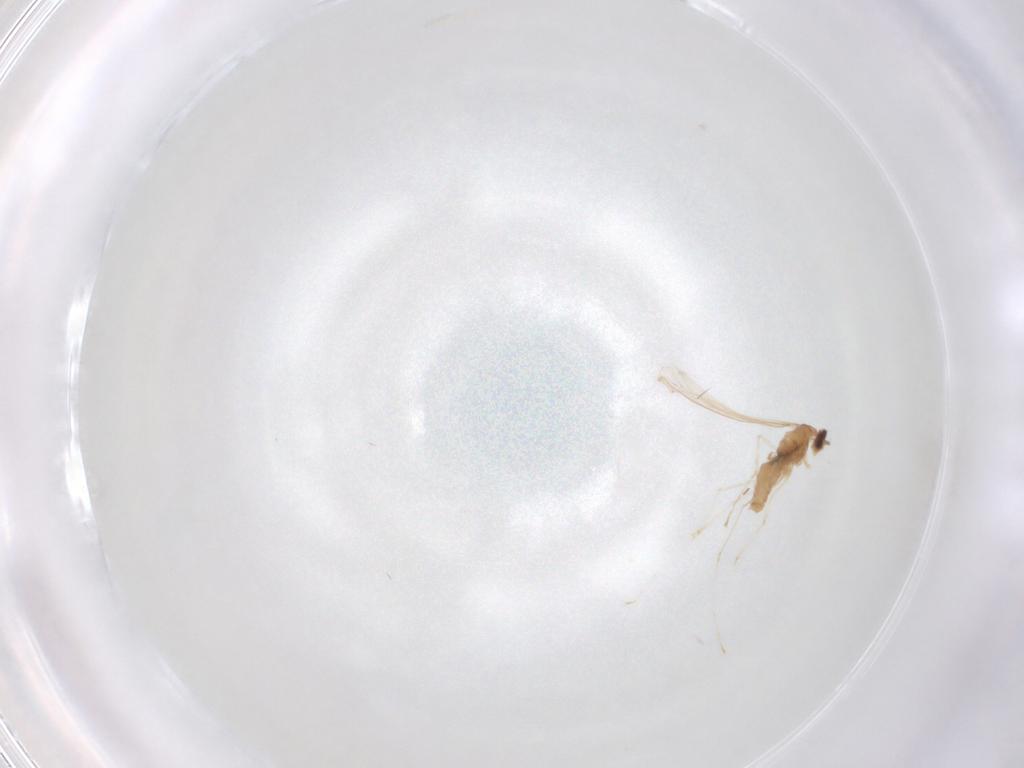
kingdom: Animalia
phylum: Arthropoda
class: Insecta
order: Diptera
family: Cecidomyiidae
